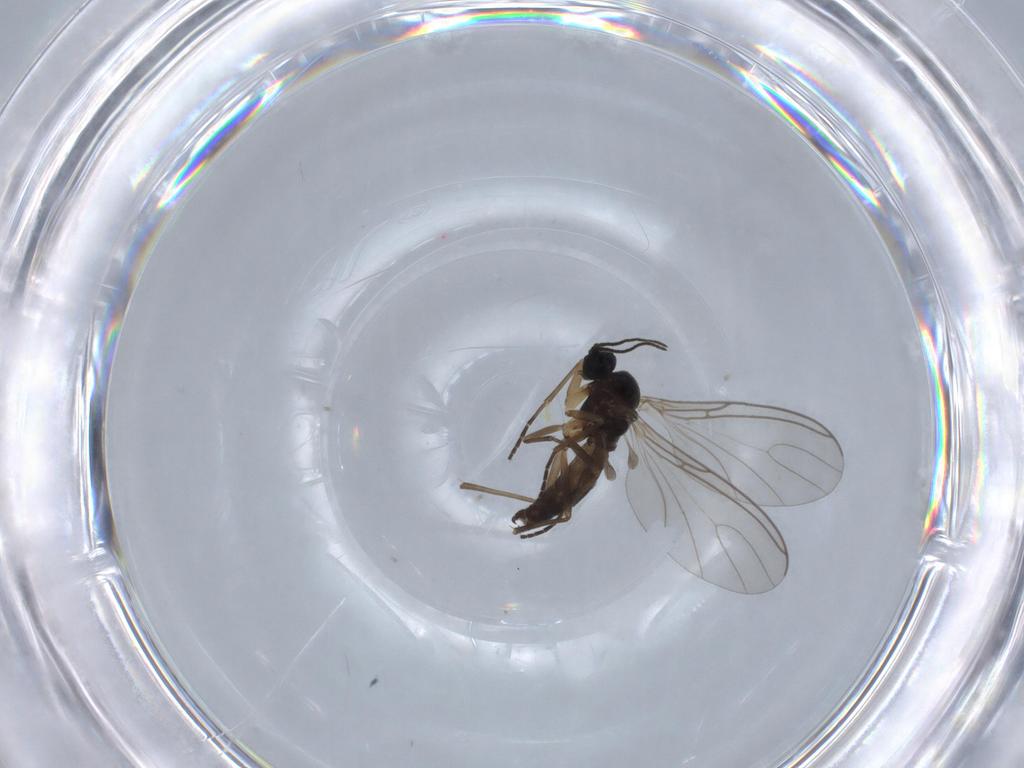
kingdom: Animalia
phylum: Arthropoda
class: Insecta
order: Diptera
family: Sciaridae
